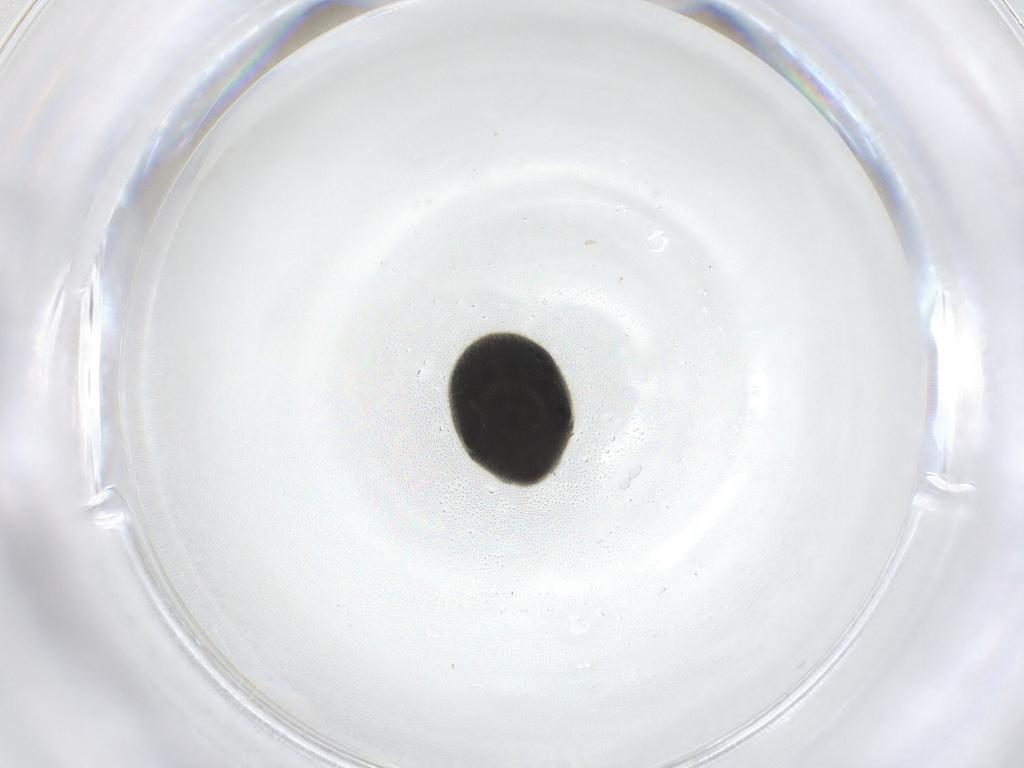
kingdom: Animalia
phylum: Arthropoda
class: Insecta
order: Coleoptera
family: Ptinidae
